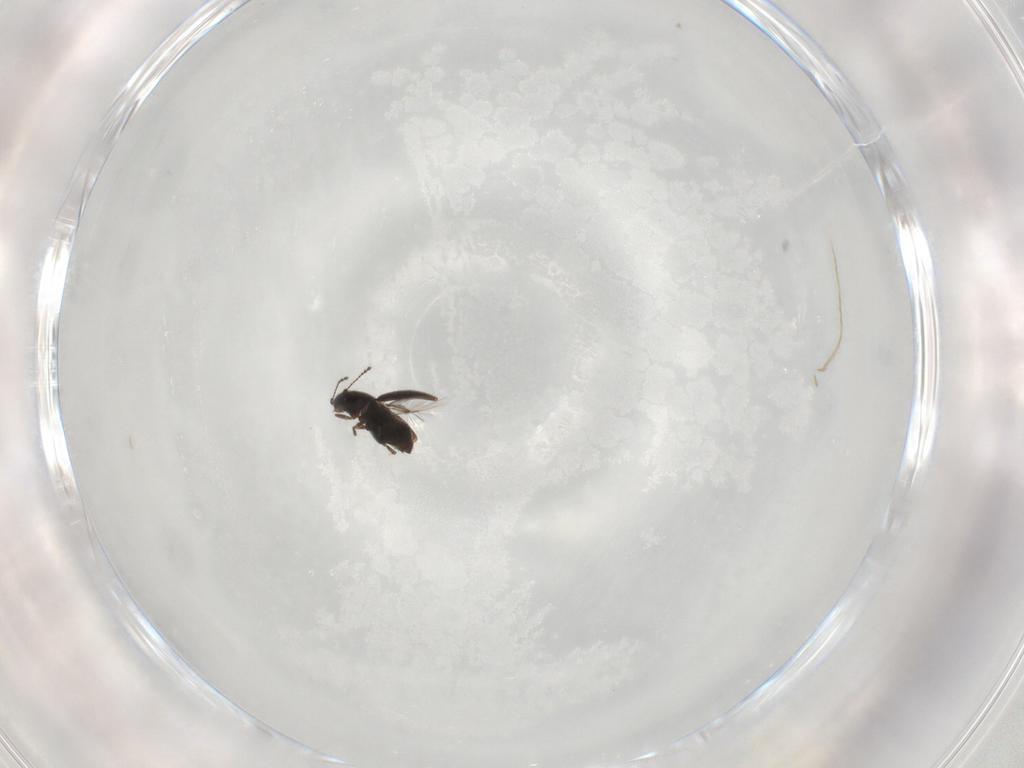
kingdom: Animalia
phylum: Arthropoda
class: Insecta
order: Coleoptera
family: Ptiliidae
